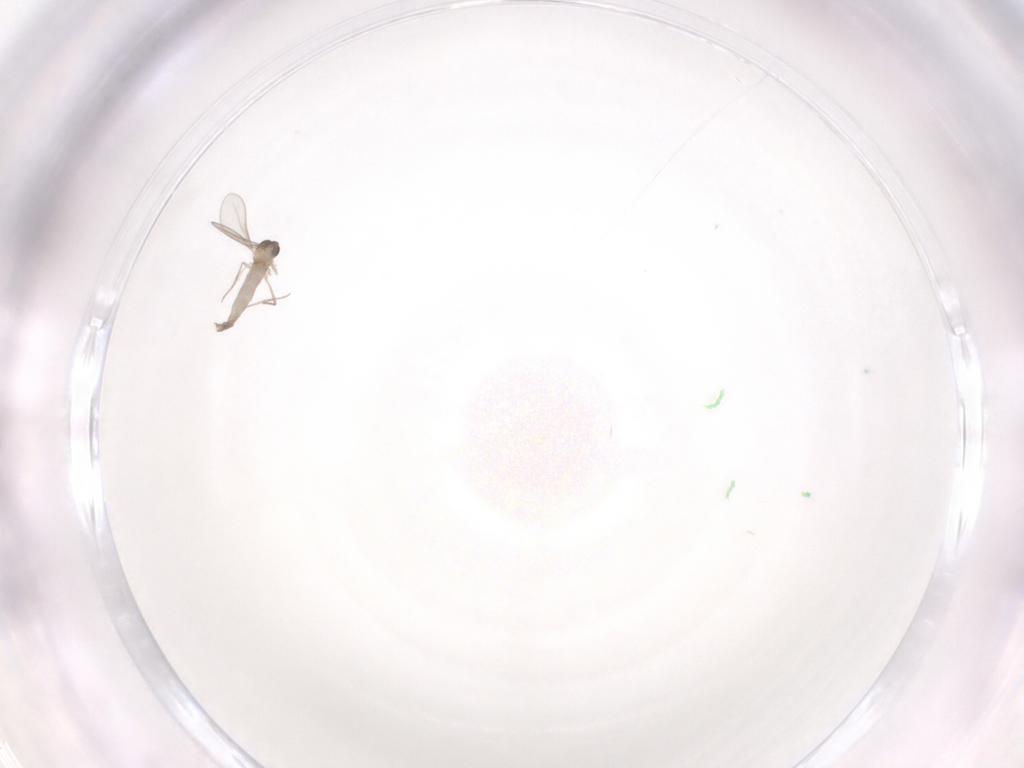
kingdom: Animalia
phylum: Arthropoda
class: Insecta
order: Diptera
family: Cecidomyiidae
